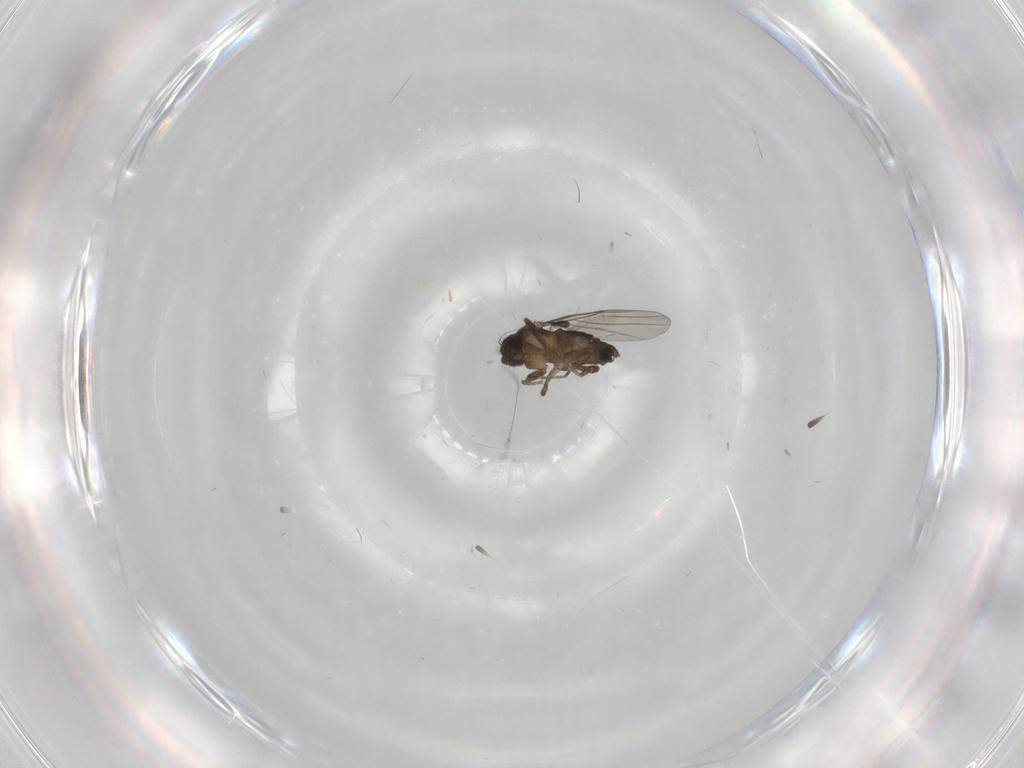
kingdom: Animalia
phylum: Arthropoda
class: Insecta
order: Diptera
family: Phoridae
